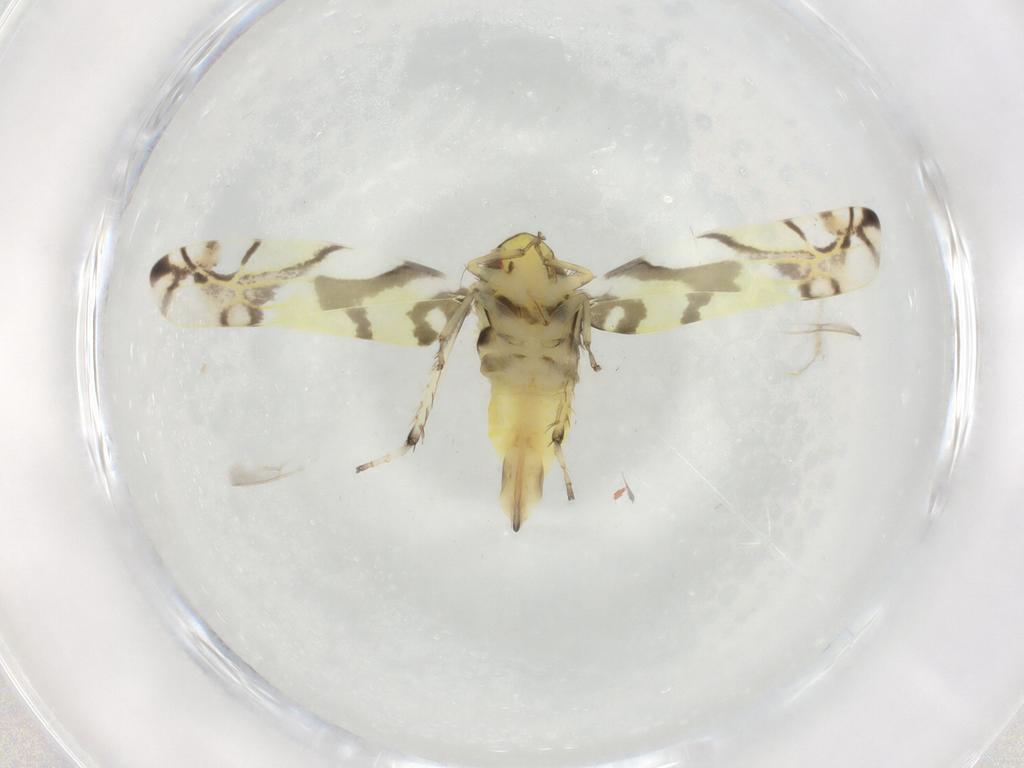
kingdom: Animalia
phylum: Arthropoda
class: Insecta
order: Hemiptera
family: Cicadellidae
